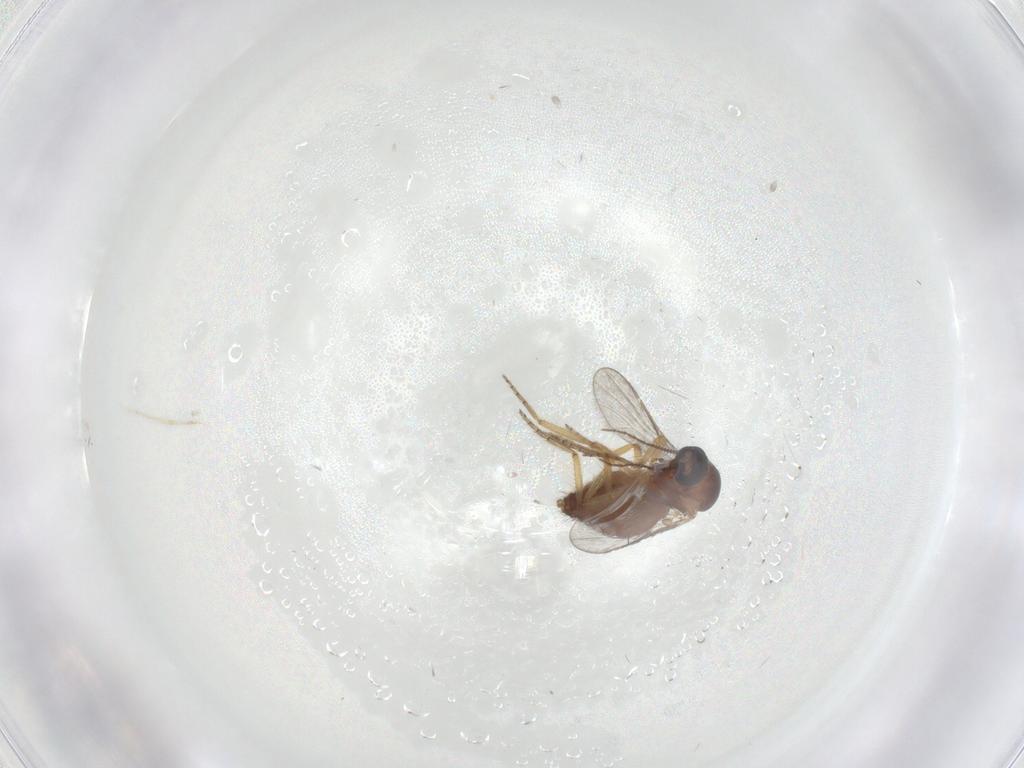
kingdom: Animalia
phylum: Arthropoda
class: Insecta
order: Diptera
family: Ceratopogonidae
